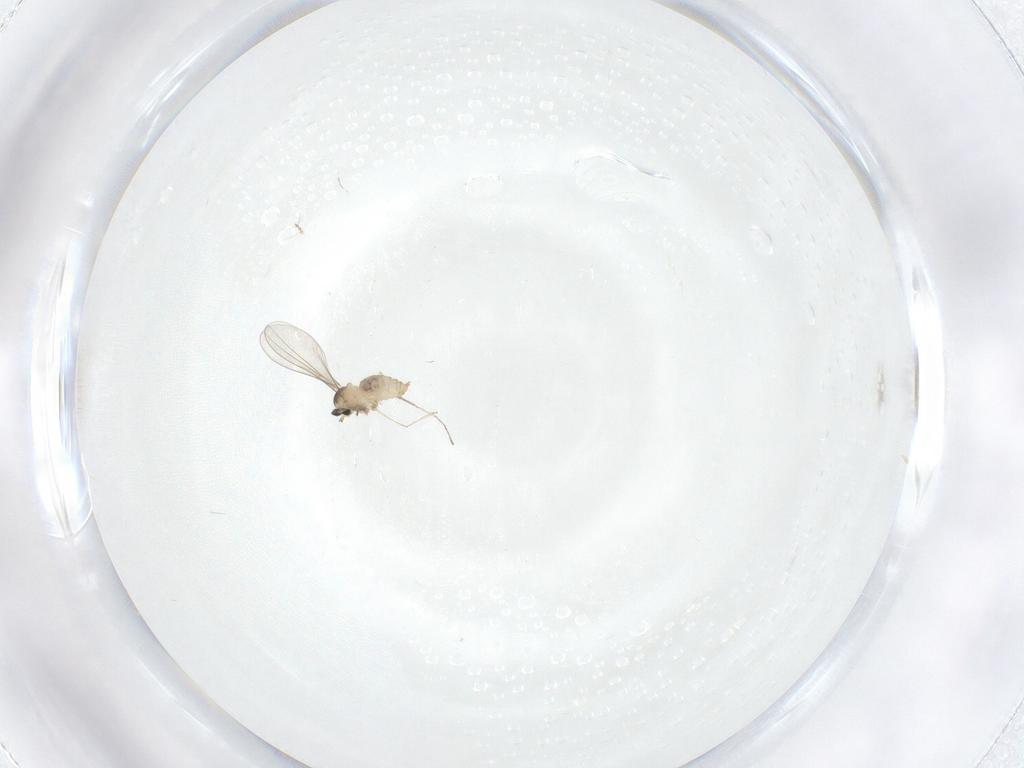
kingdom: Animalia
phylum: Arthropoda
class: Insecta
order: Diptera
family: Cecidomyiidae
